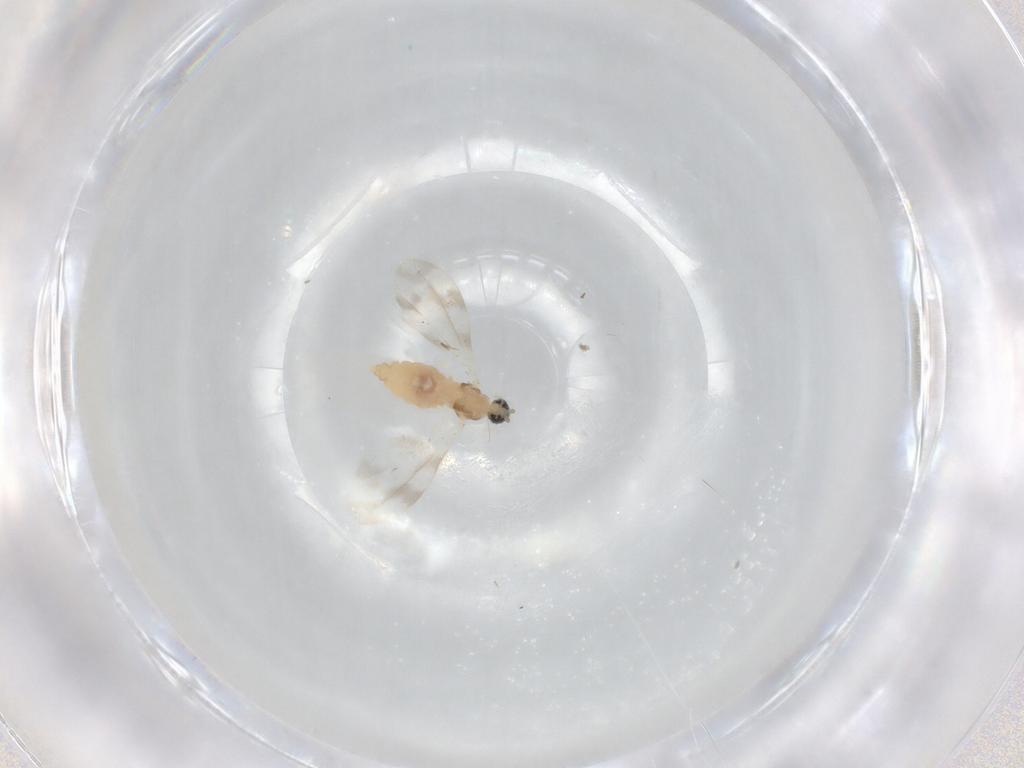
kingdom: Animalia
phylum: Arthropoda
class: Insecta
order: Diptera
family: Cecidomyiidae
